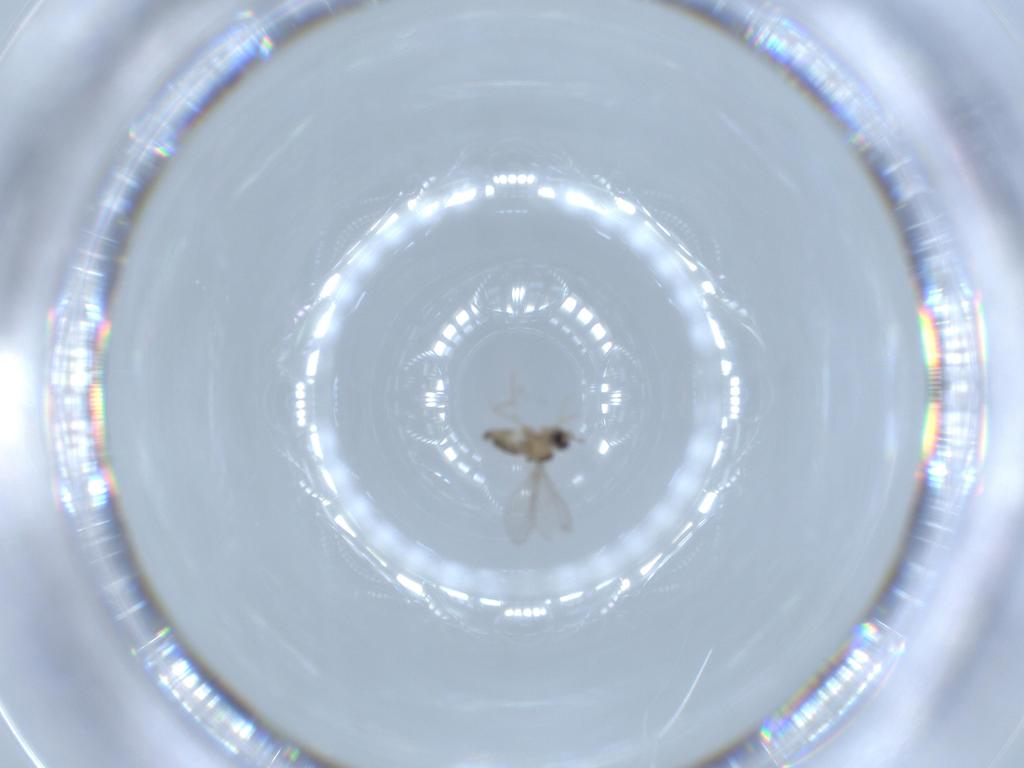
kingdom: Animalia
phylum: Arthropoda
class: Insecta
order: Diptera
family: Cecidomyiidae
